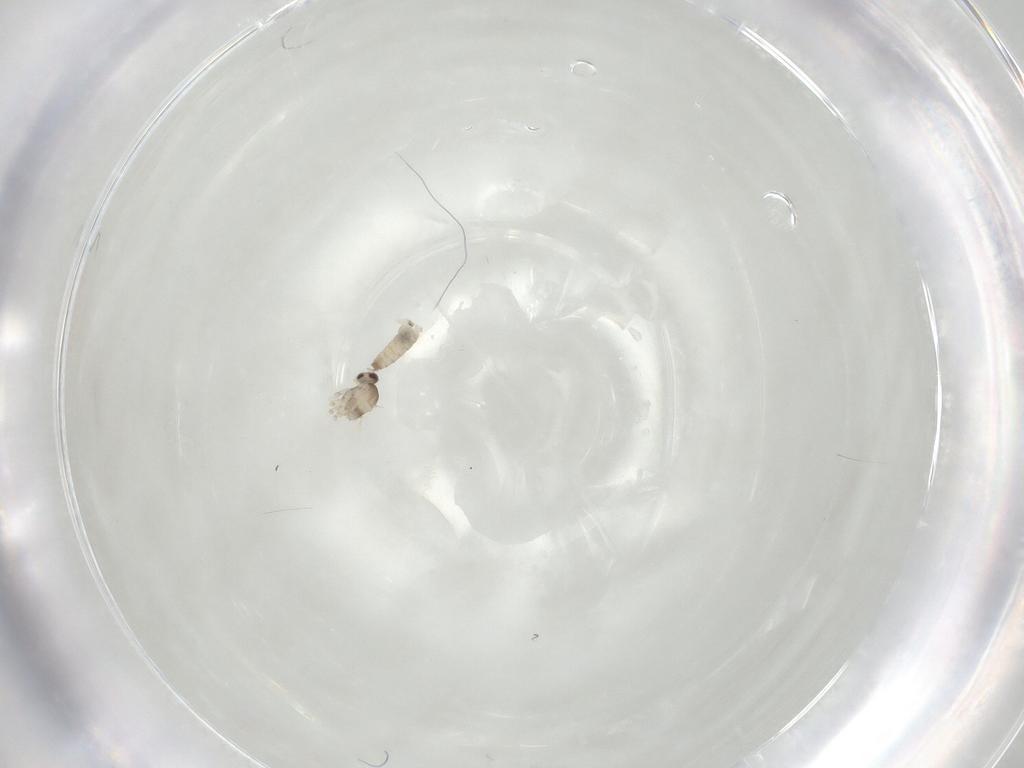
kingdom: Animalia
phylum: Arthropoda
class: Insecta
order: Diptera
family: Cecidomyiidae
